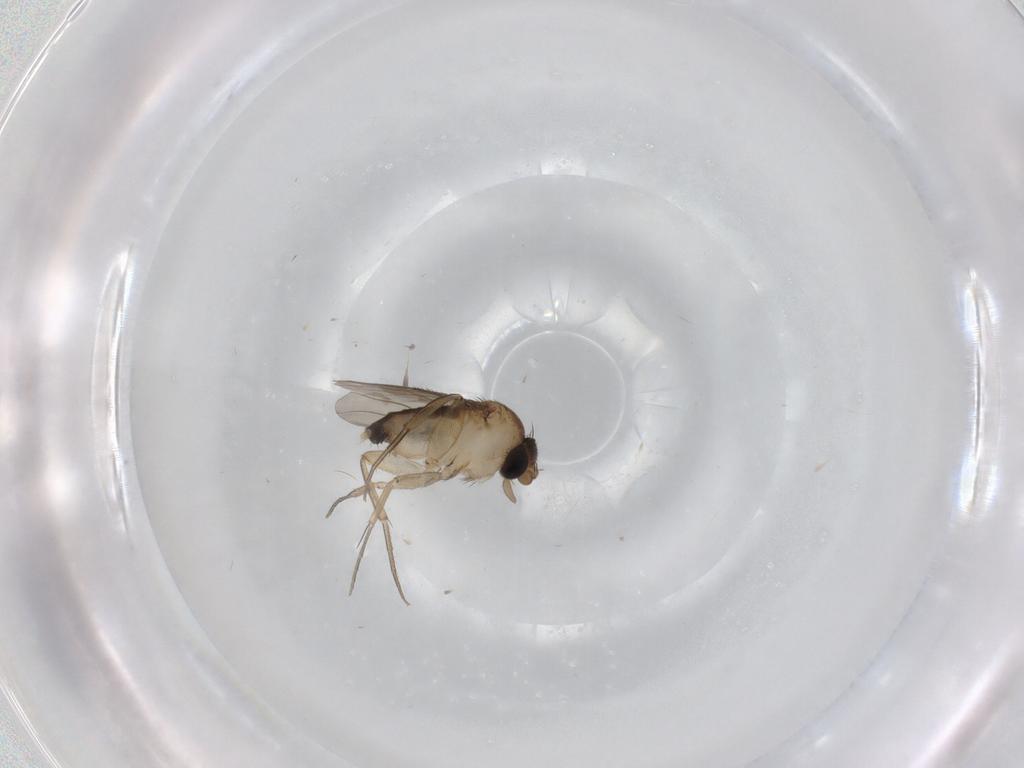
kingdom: Animalia
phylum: Arthropoda
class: Insecta
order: Diptera
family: Phoridae
